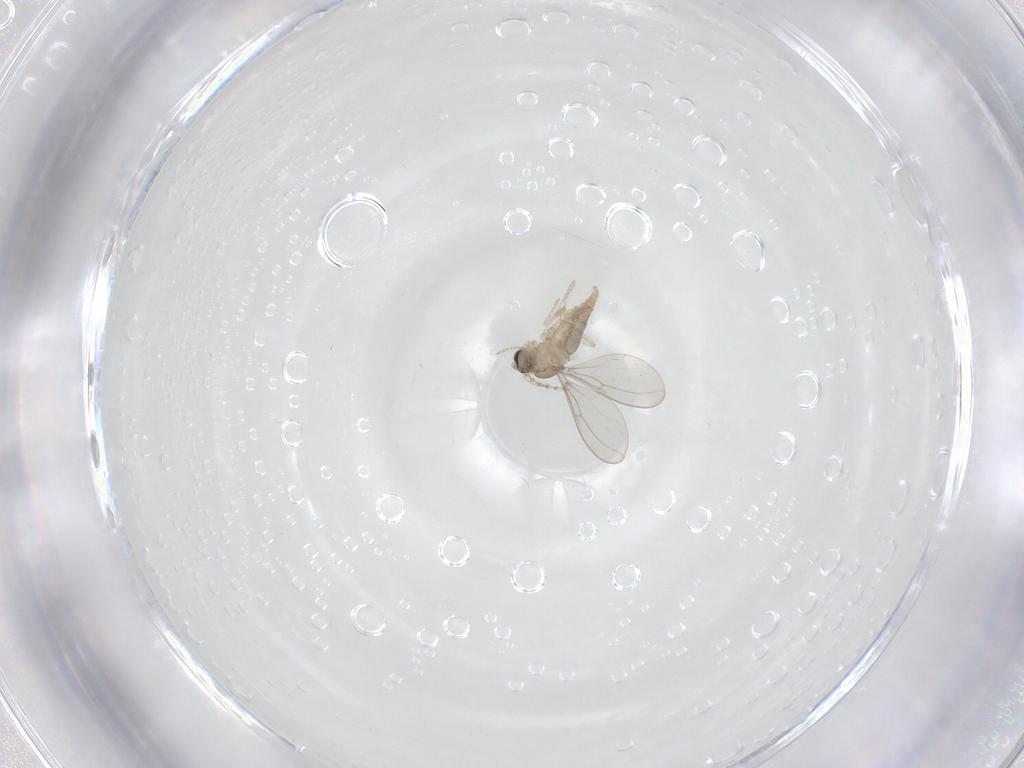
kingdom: Animalia
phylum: Arthropoda
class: Insecta
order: Diptera
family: Cecidomyiidae
